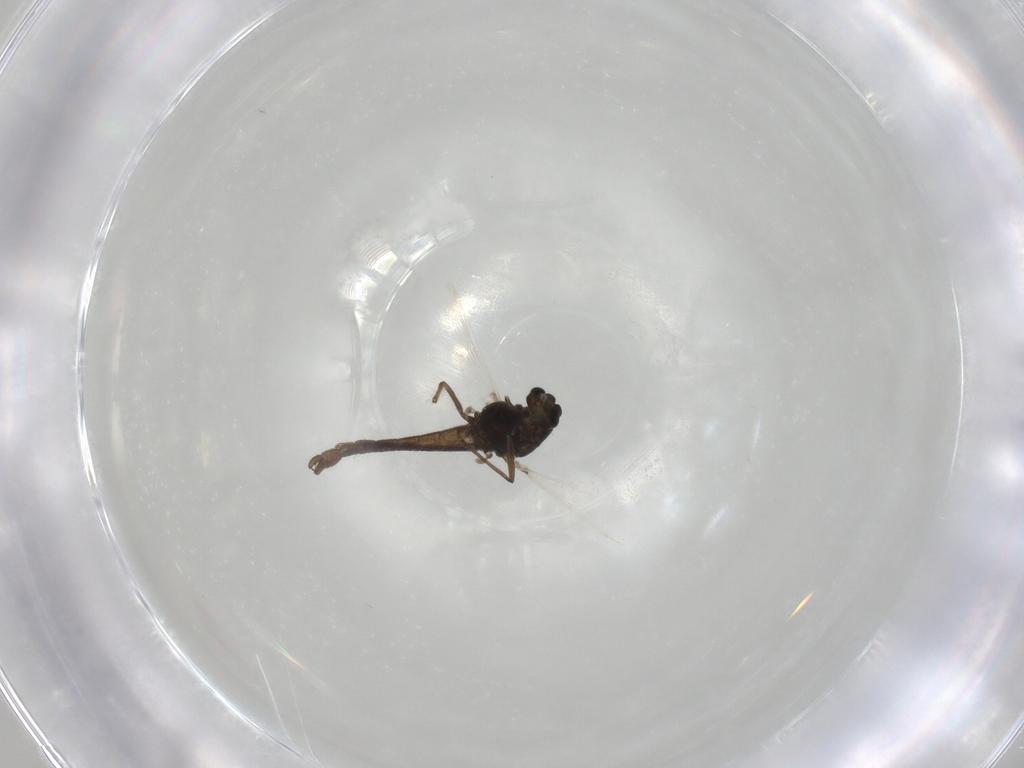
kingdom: Animalia
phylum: Arthropoda
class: Insecta
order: Diptera
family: Chironomidae
